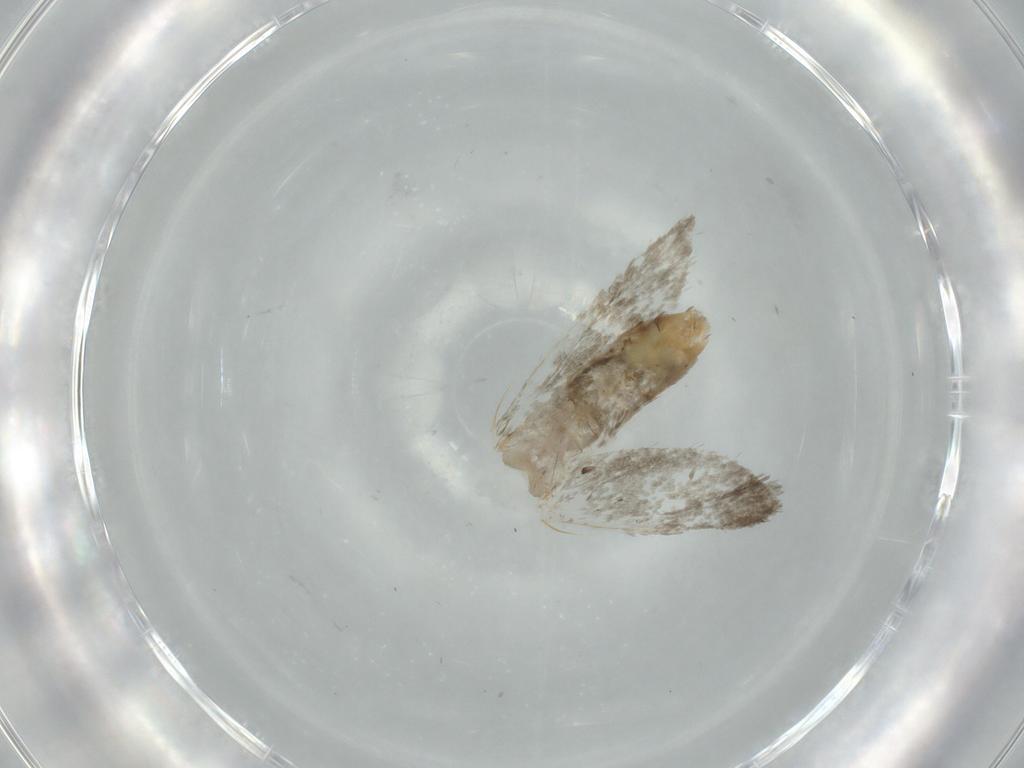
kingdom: Animalia
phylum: Arthropoda
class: Insecta
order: Lepidoptera
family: Tineidae
